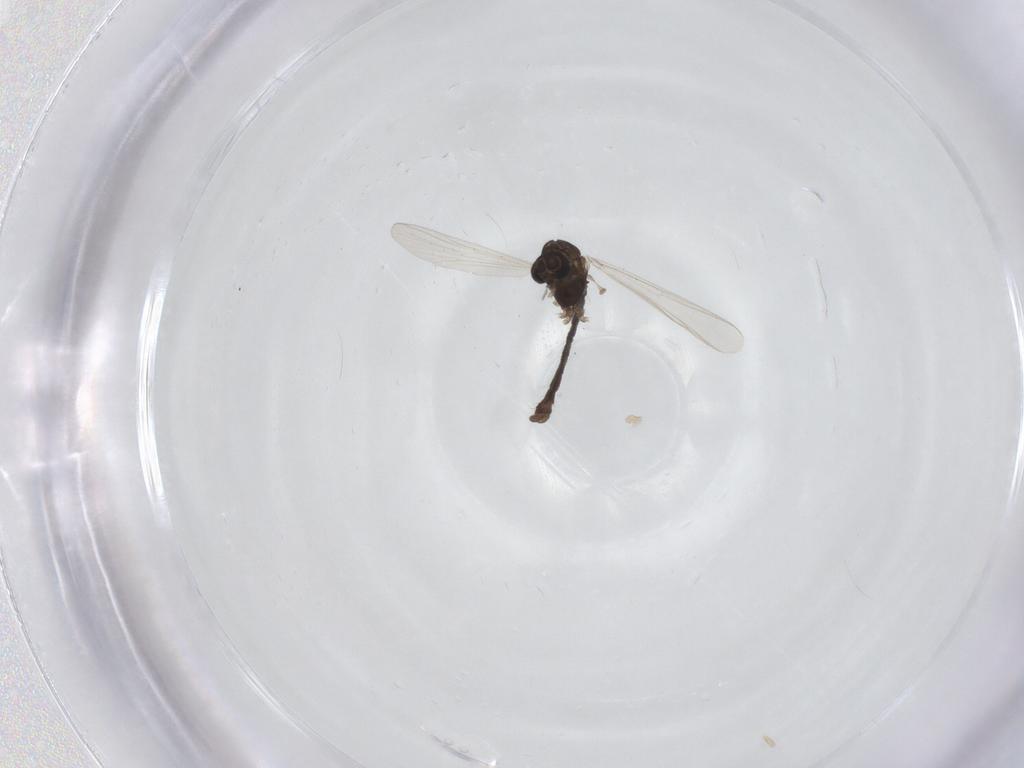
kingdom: Animalia
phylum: Arthropoda
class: Insecta
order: Diptera
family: Chironomidae
